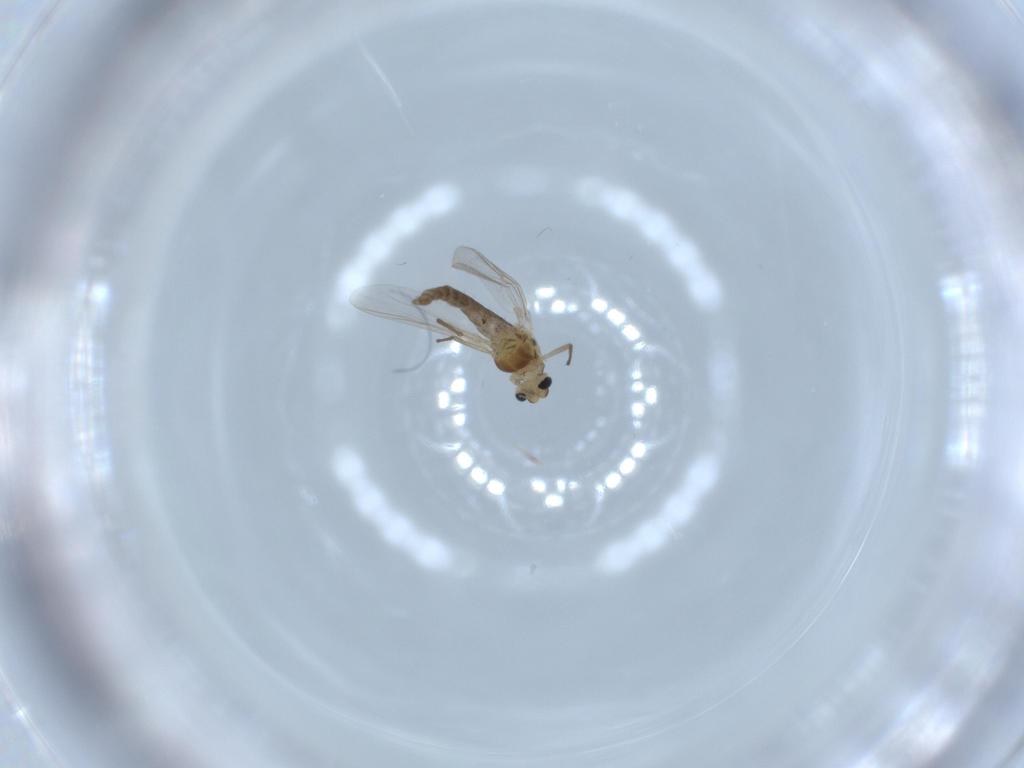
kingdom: Animalia
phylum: Arthropoda
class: Insecta
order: Diptera
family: Chironomidae
